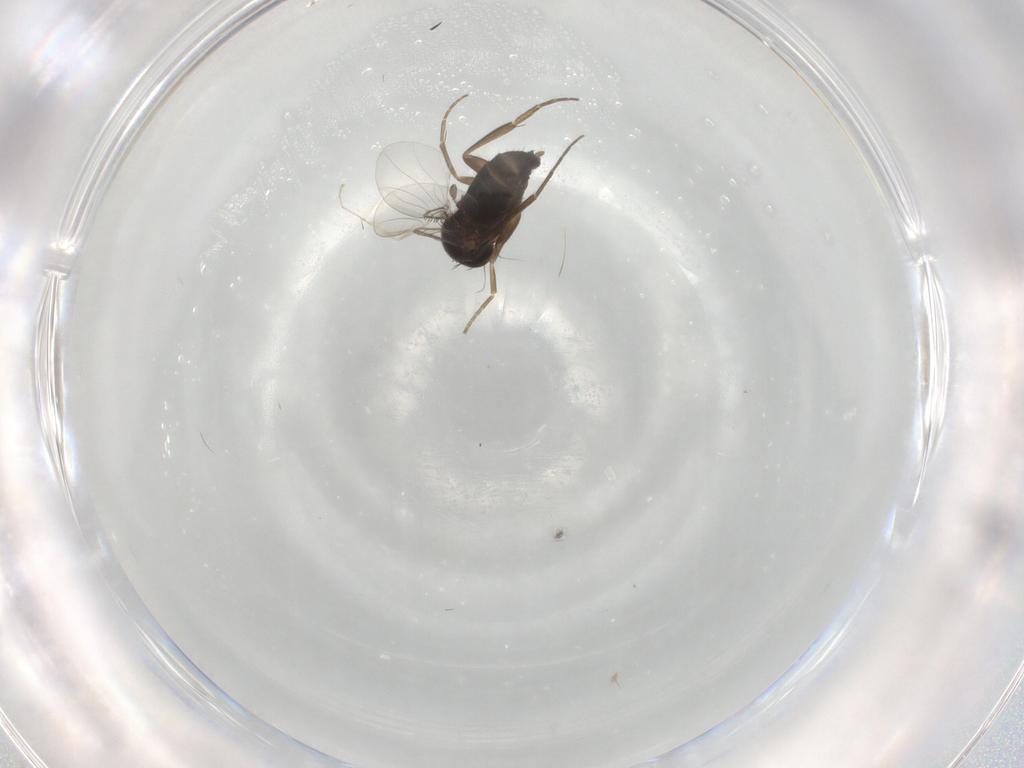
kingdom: Animalia
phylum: Arthropoda
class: Insecta
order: Diptera
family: Phoridae
